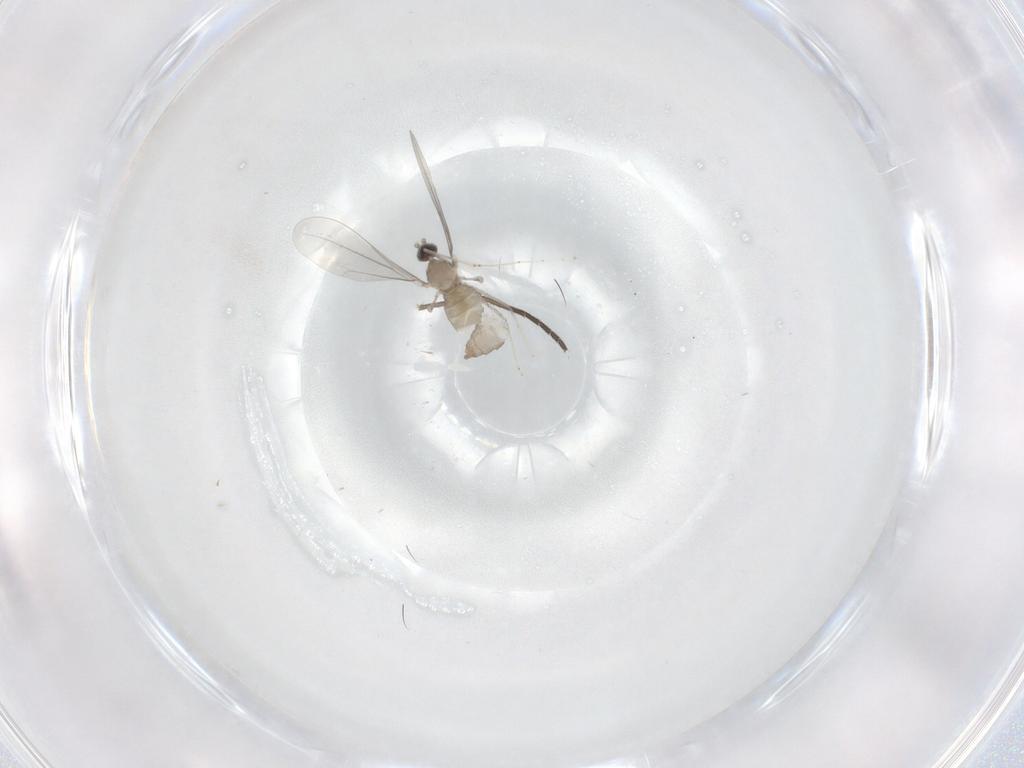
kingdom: Animalia
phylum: Arthropoda
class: Insecta
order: Diptera
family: Cecidomyiidae
